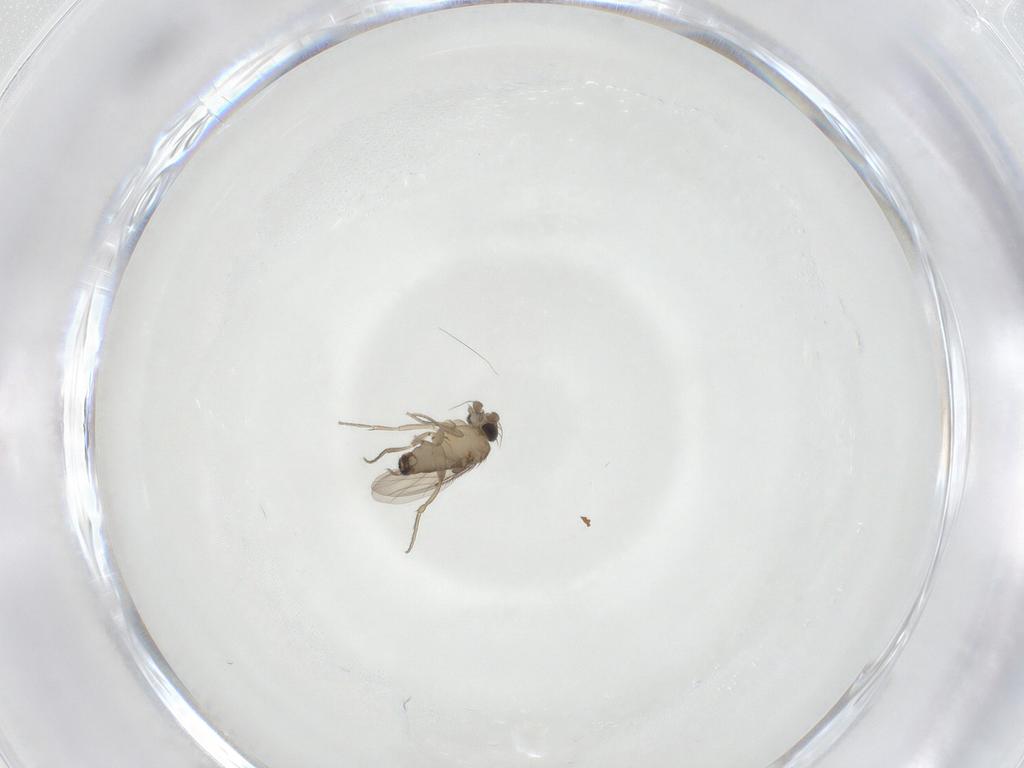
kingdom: Animalia
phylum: Arthropoda
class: Insecta
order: Diptera
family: Phoridae
